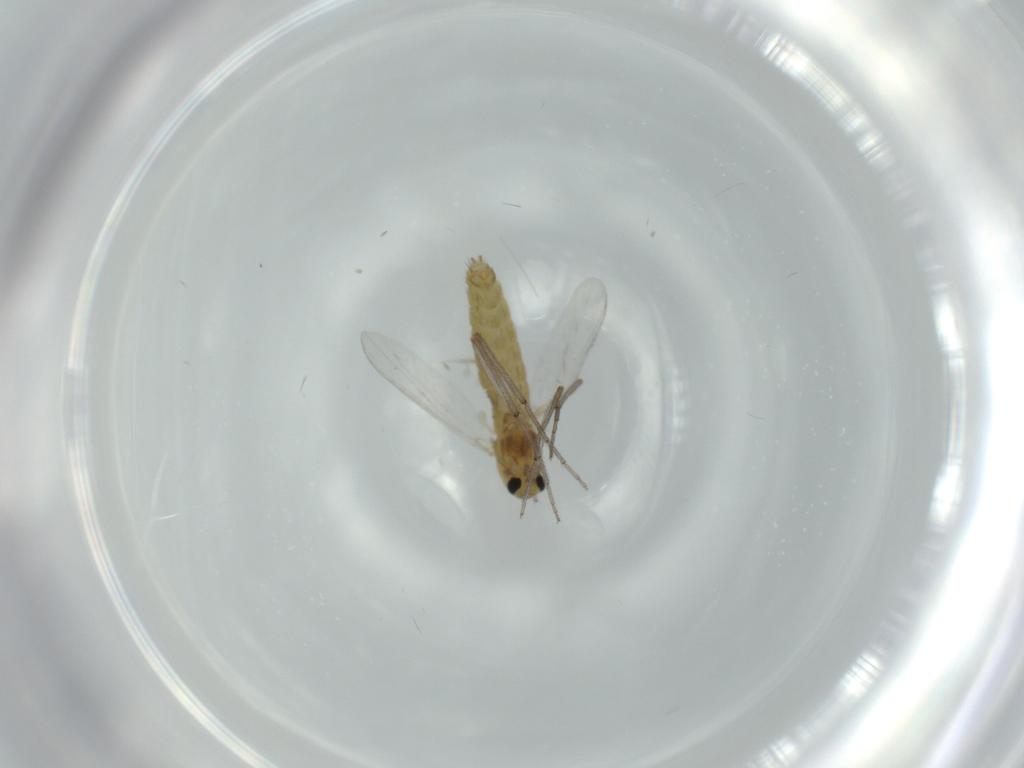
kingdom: Animalia
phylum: Arthropoda
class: Insecta
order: Diptera
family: Chironomidae
